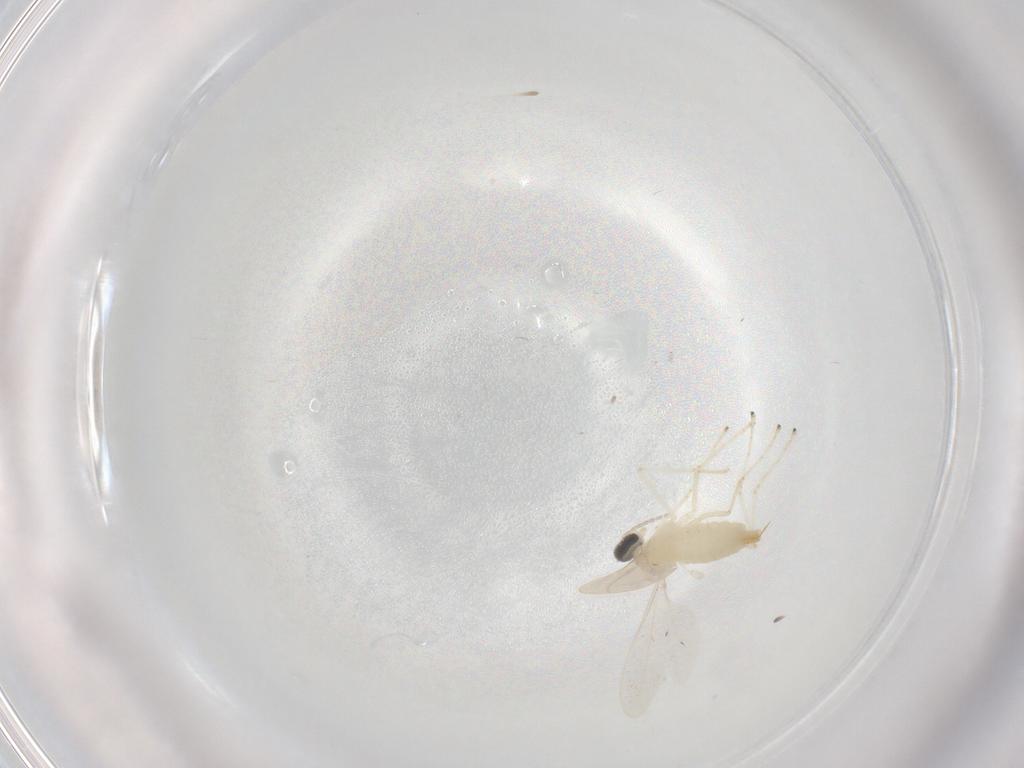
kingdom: Animalia
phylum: Arthropoda
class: Insecta
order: Diptera
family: Cecidomyiidae
